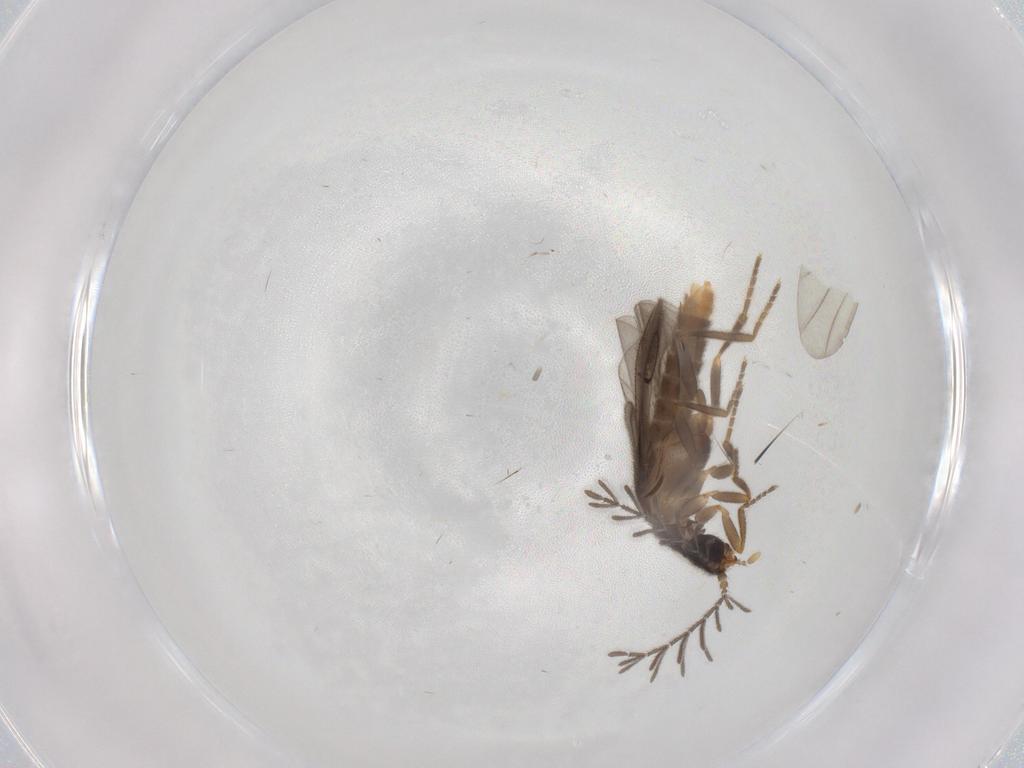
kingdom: Animalia
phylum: Arthropoda
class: Insecta
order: Coleoptera
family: Chrysomelidae
